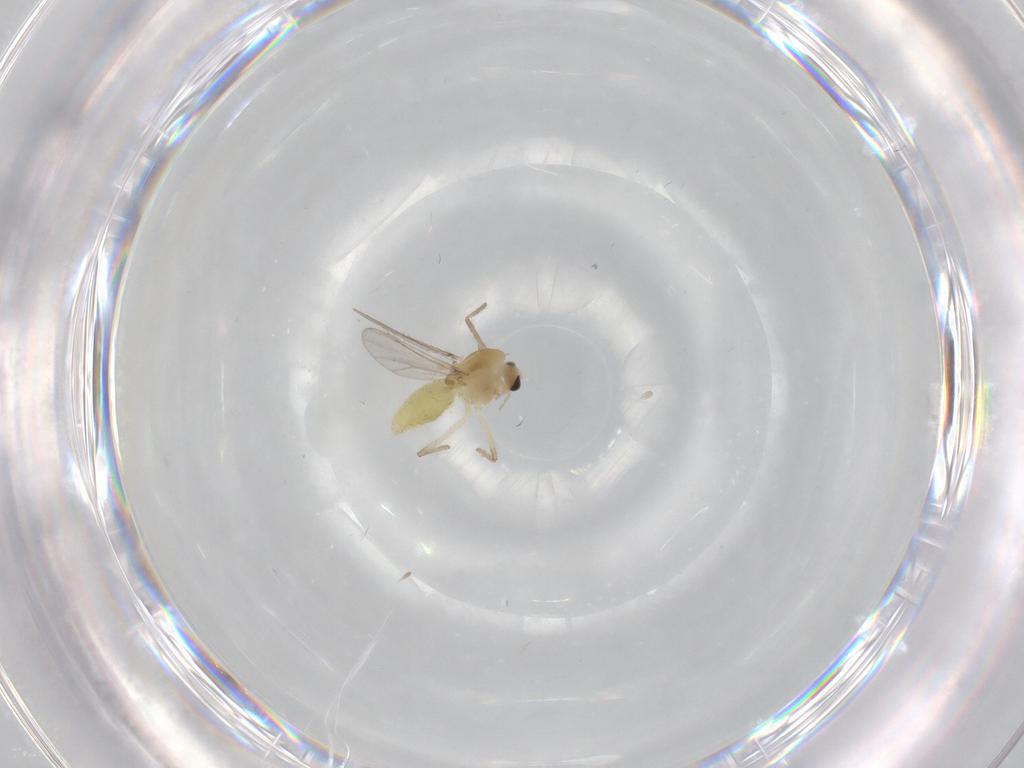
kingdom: Animalia
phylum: Arthropoda
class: Insecta
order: Diptera
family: Chironomidae
